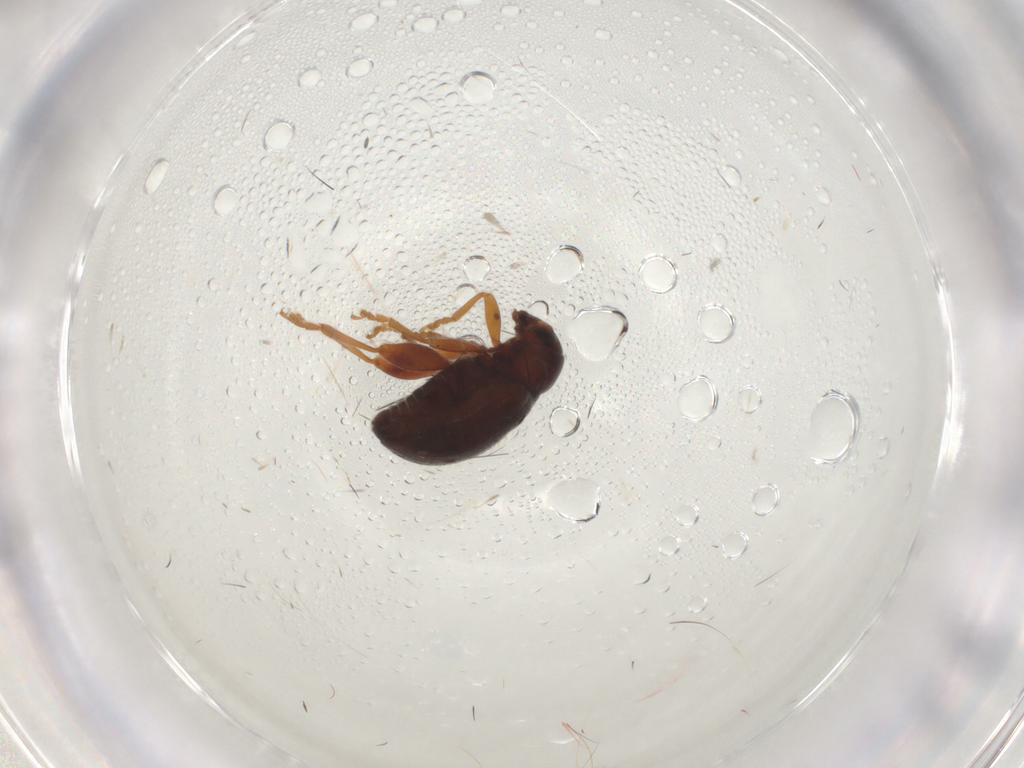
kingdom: Animalia
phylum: Arthropoda
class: Insecta
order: Coleoptera
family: Chrysomelidae
